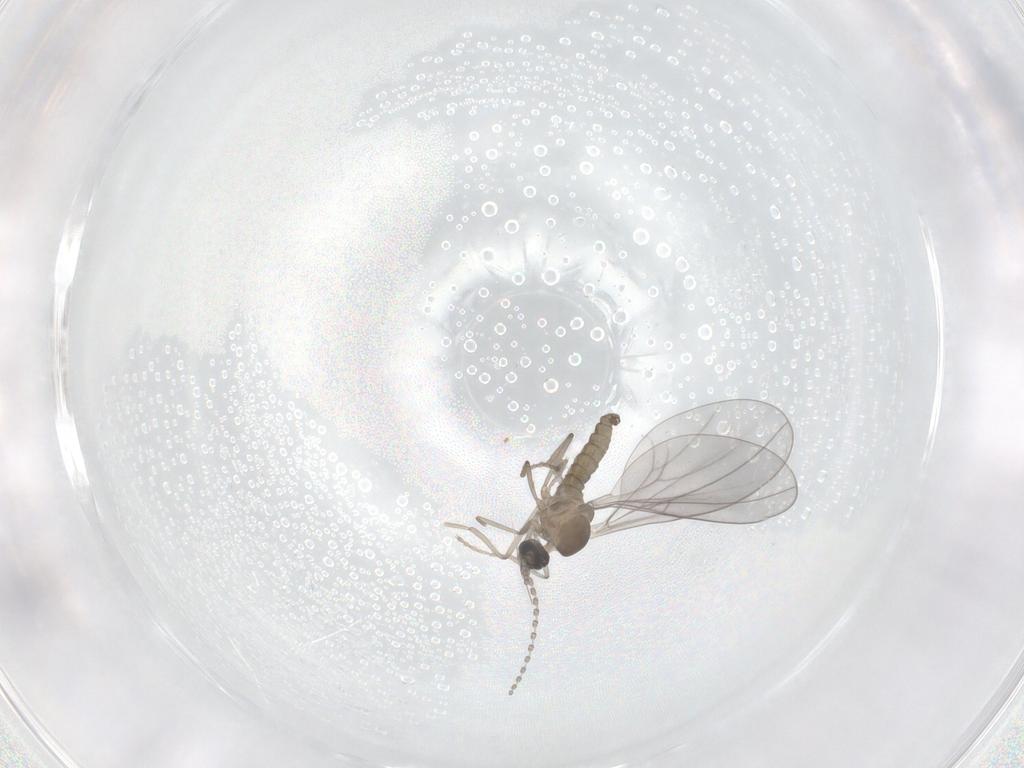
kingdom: Animalia
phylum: Arthropoda
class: Insecta
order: Diptera
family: Cecidomyiidae
